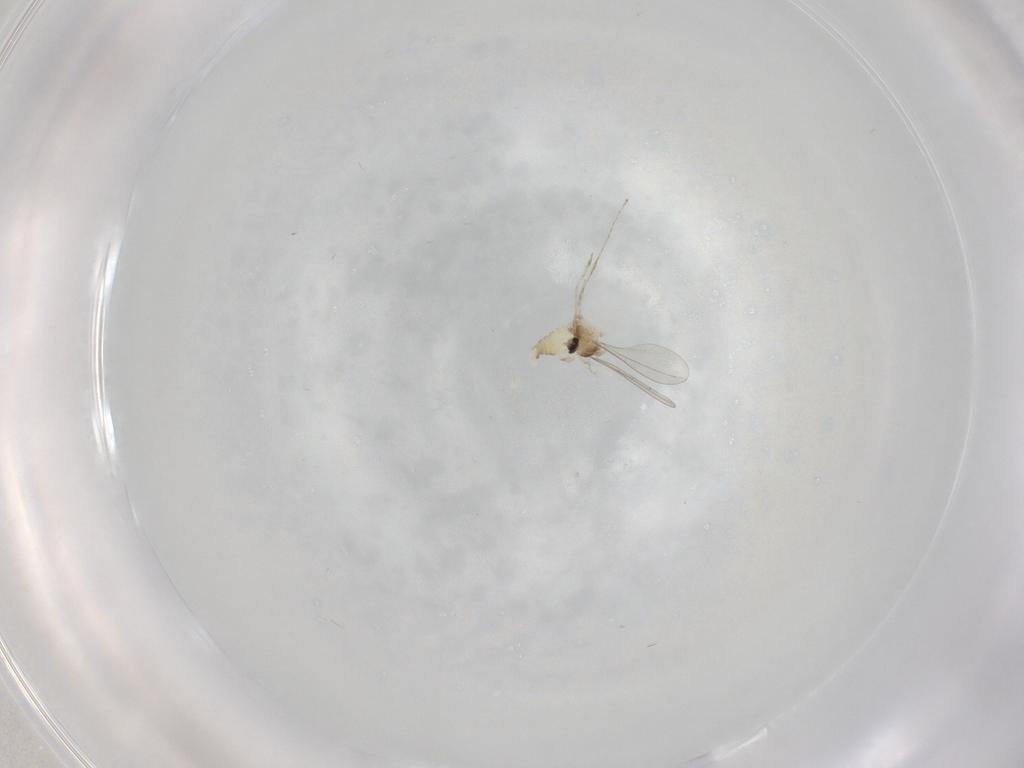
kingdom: Animalia
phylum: Arthropoda
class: Insecta
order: Diptera
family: Cecidomyiidae
